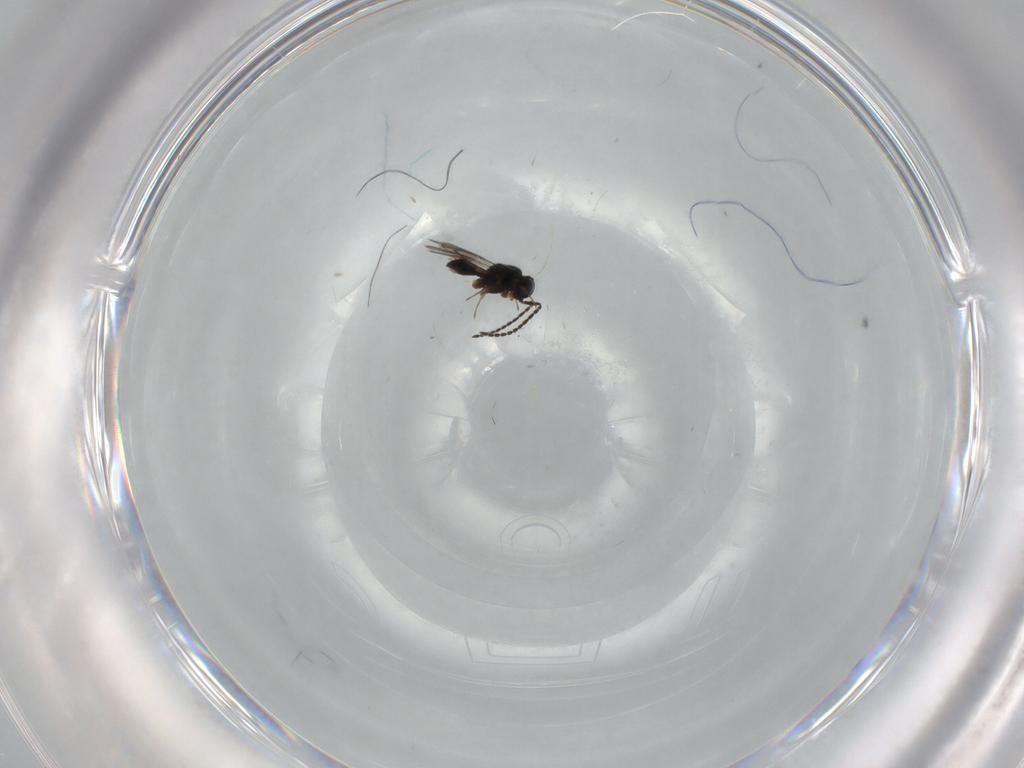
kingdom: Animalia
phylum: Arthropoda
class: Insecta
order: Hymenoptera
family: Scelionidae
